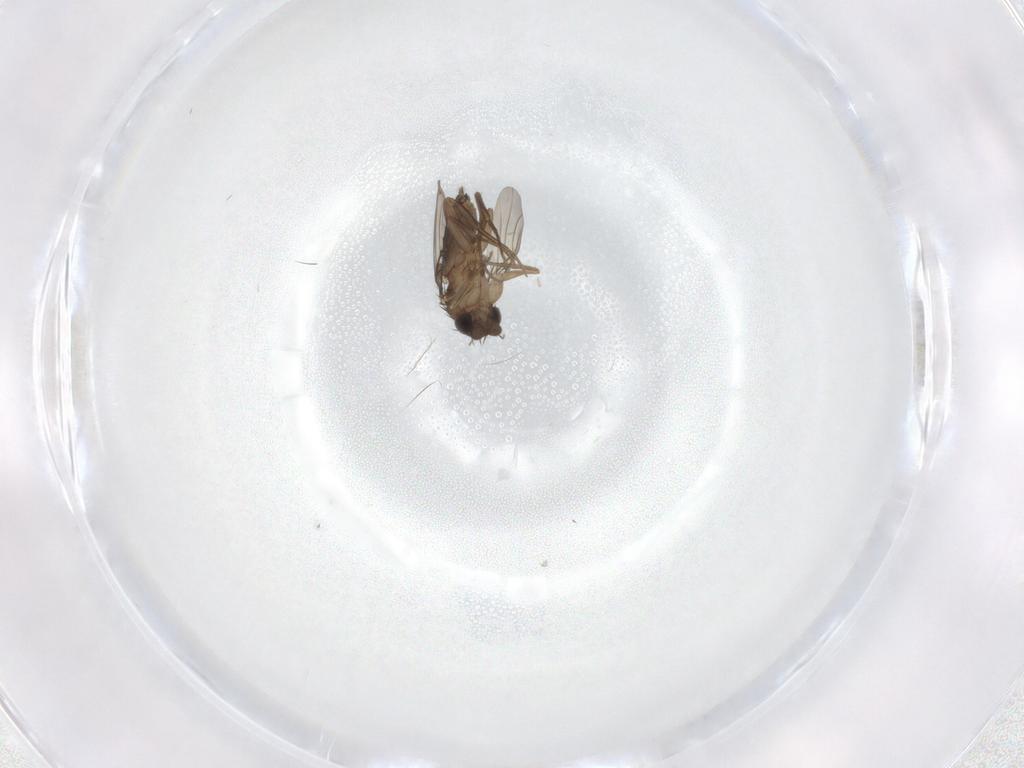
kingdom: Animalia
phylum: Arthropoda
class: Insecta
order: Diptera
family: Phoridae
